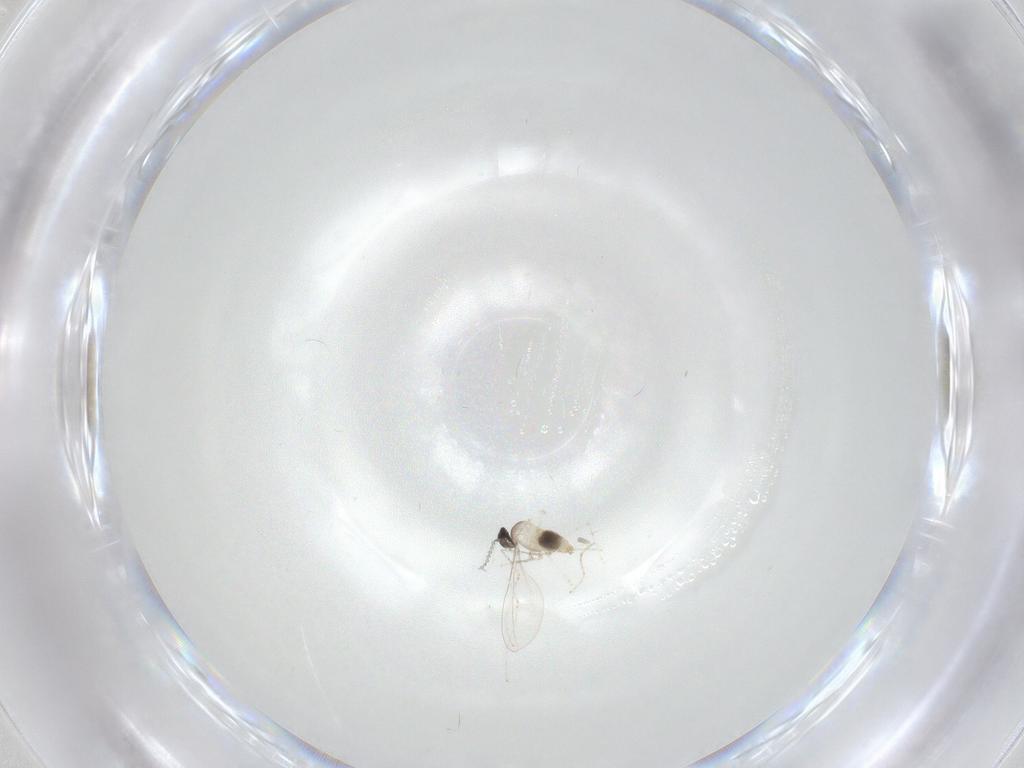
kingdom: Animalia
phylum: Arthropoda
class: Insecta
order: Diptera
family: Cecidomyiidae
